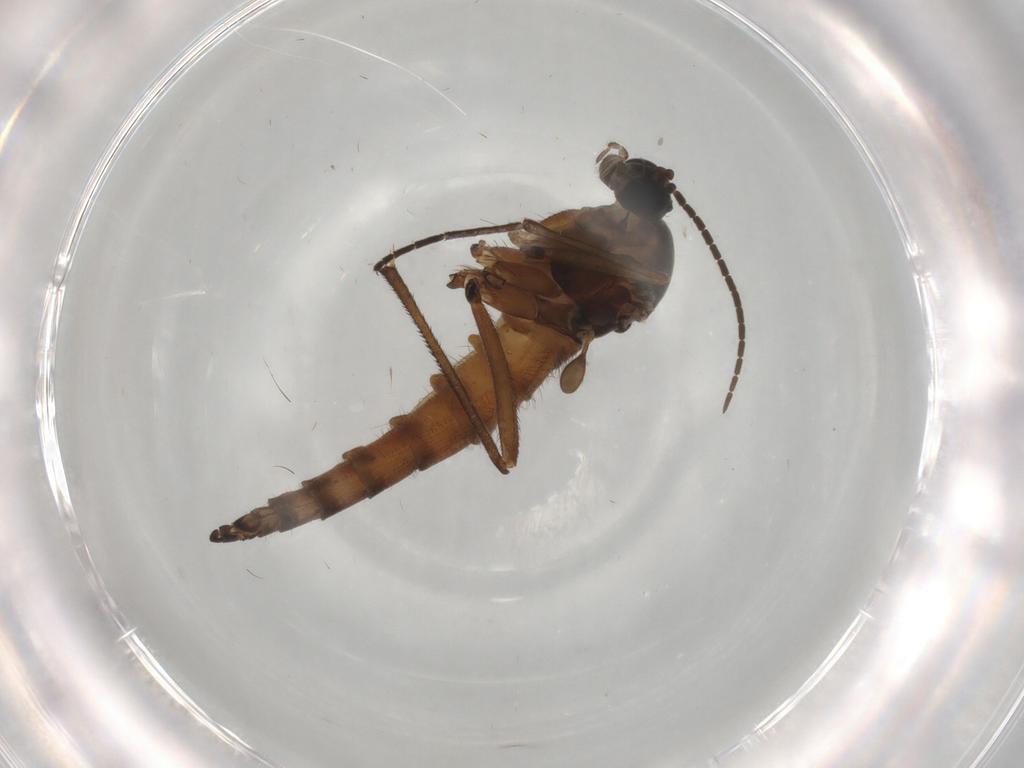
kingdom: Animalia
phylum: Arthropoda
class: Insecta
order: Diptera
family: Sciaridae
